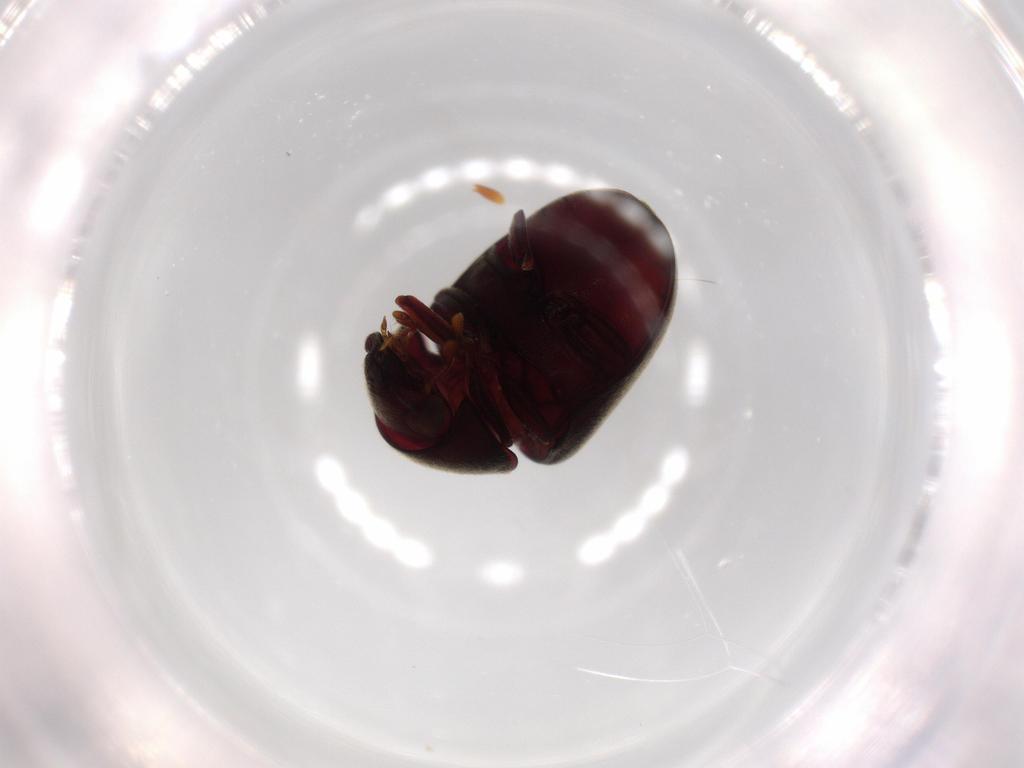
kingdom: Animalia
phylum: Arthropoda
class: Insecta
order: Coleoptera
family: Ptinidae
